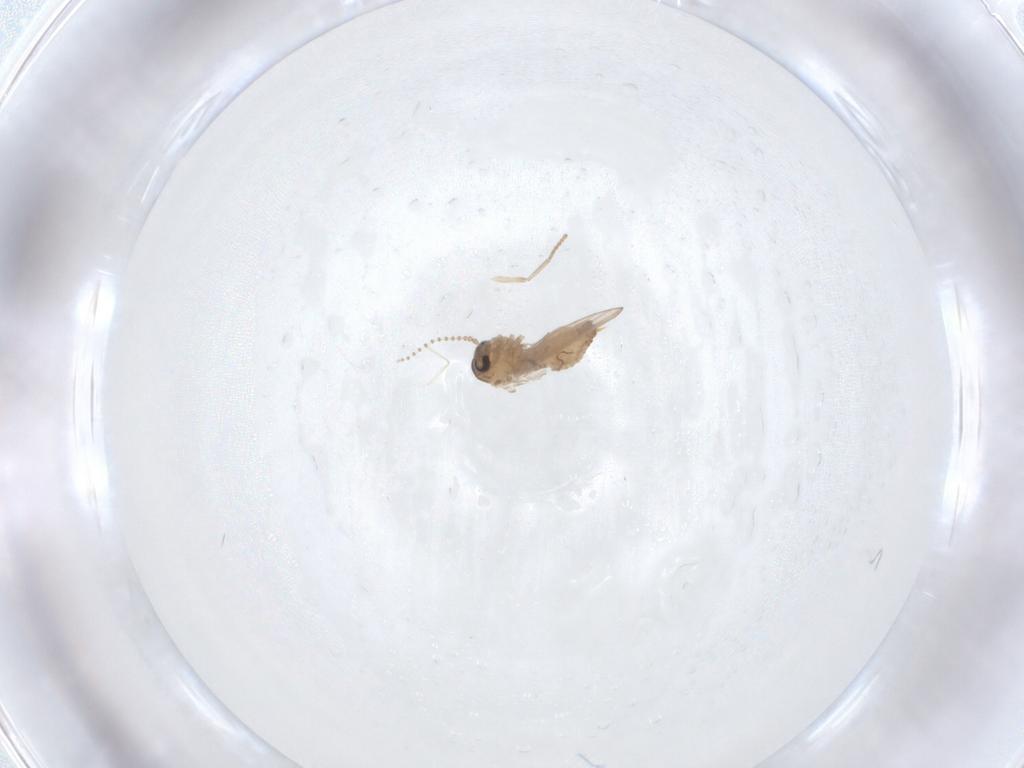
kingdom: Animalia
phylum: Arthropoda
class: Insecta
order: Diptera
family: Psychodidae
